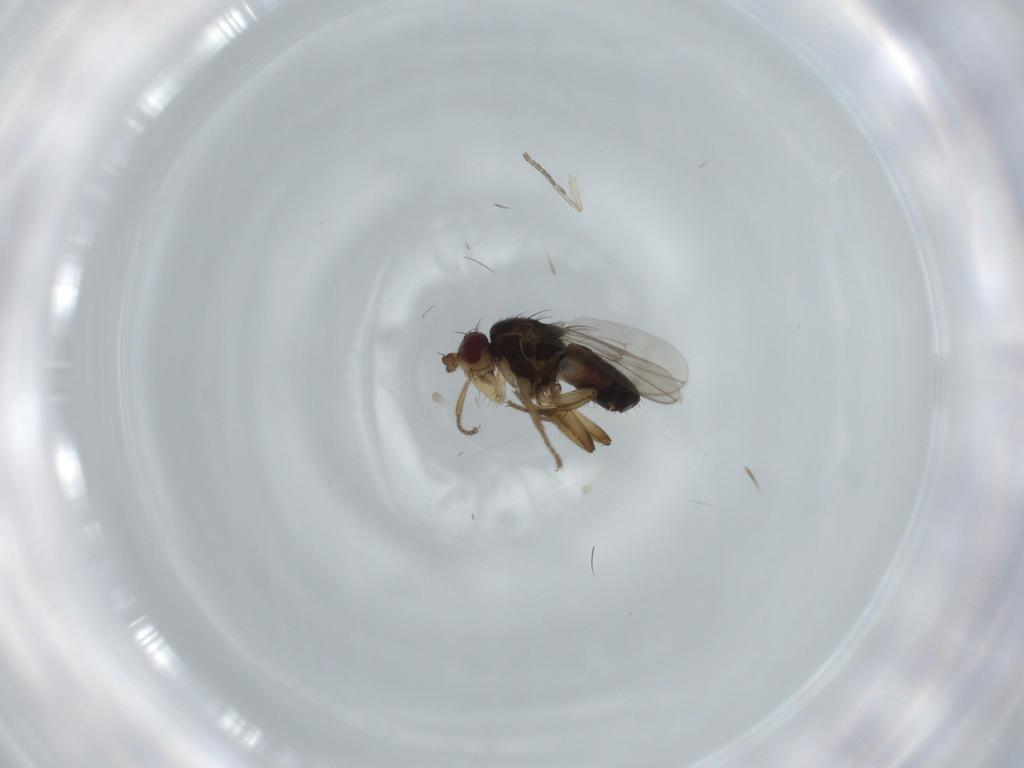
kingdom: Animalia
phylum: Arthropoda
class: Insecta
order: Diptera
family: Sphaeroceridae
